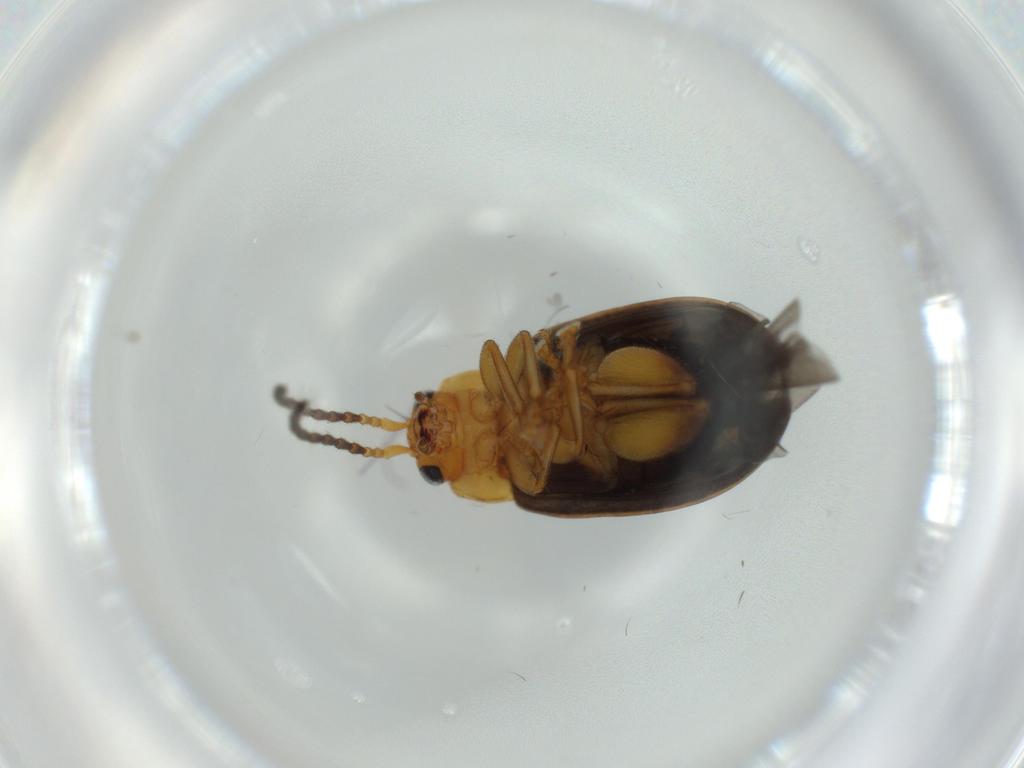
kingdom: Animalia
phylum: Arthropoda
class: Insecta
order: Coleoptera
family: Chrysomelidae
